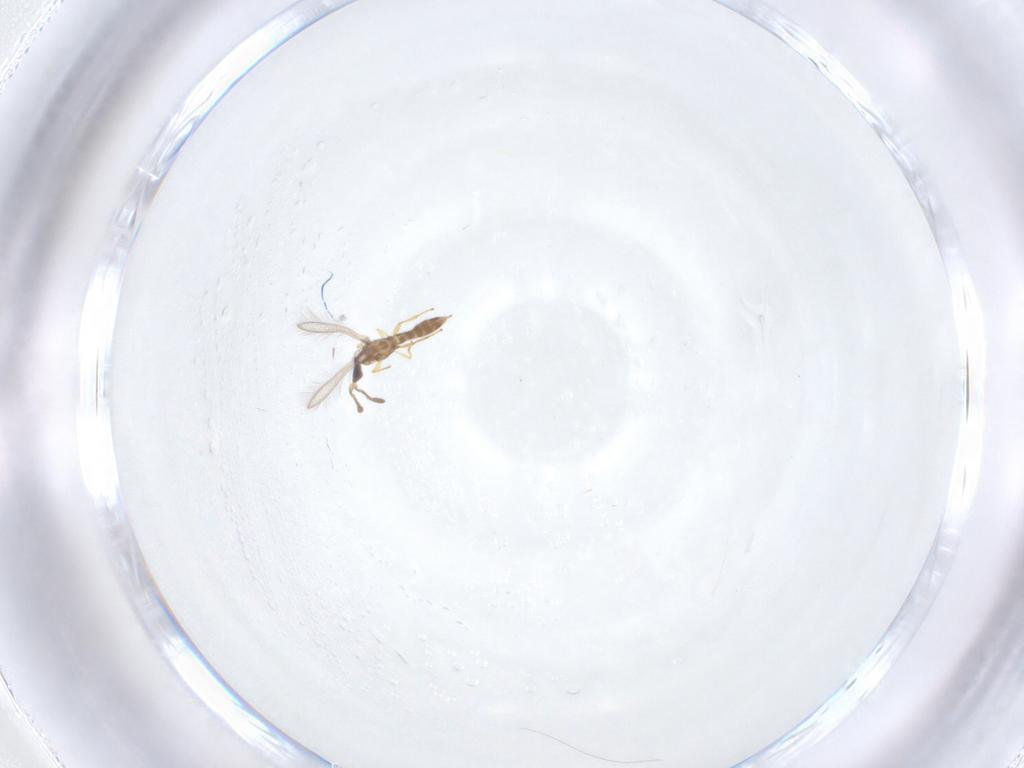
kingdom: Animalia
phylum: Arthropoda
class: Insecta
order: Hymenoptera
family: Mymaridae
